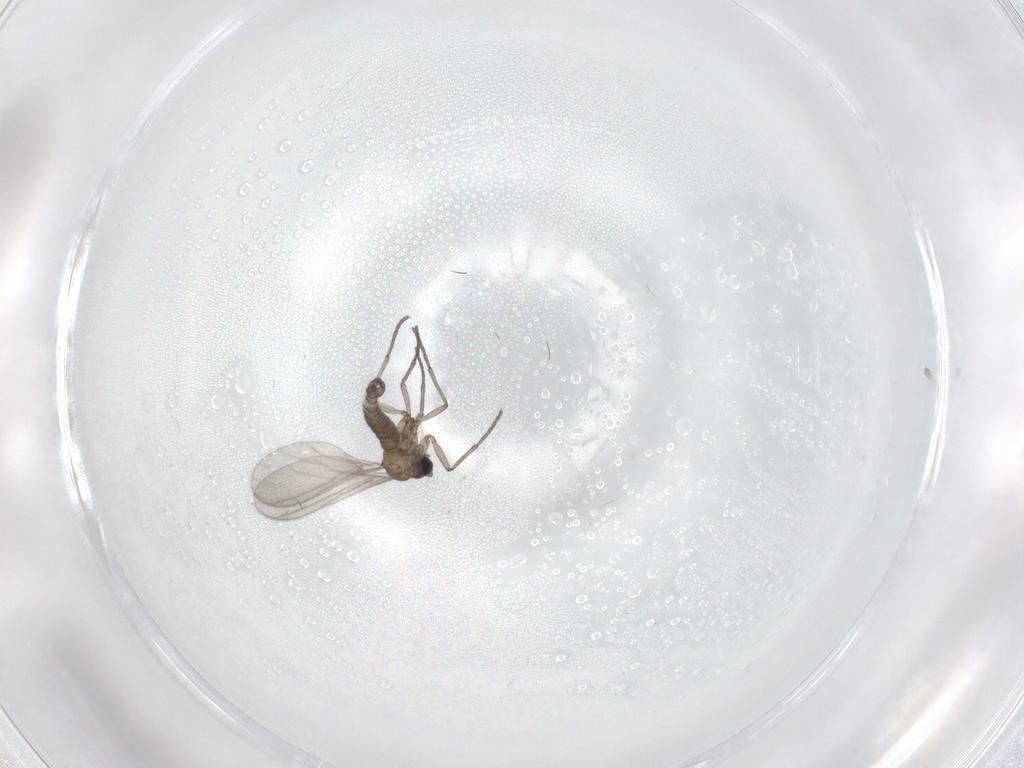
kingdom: Animalia
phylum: Arthropoda
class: Insecta
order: Diptera
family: Sciaridae
